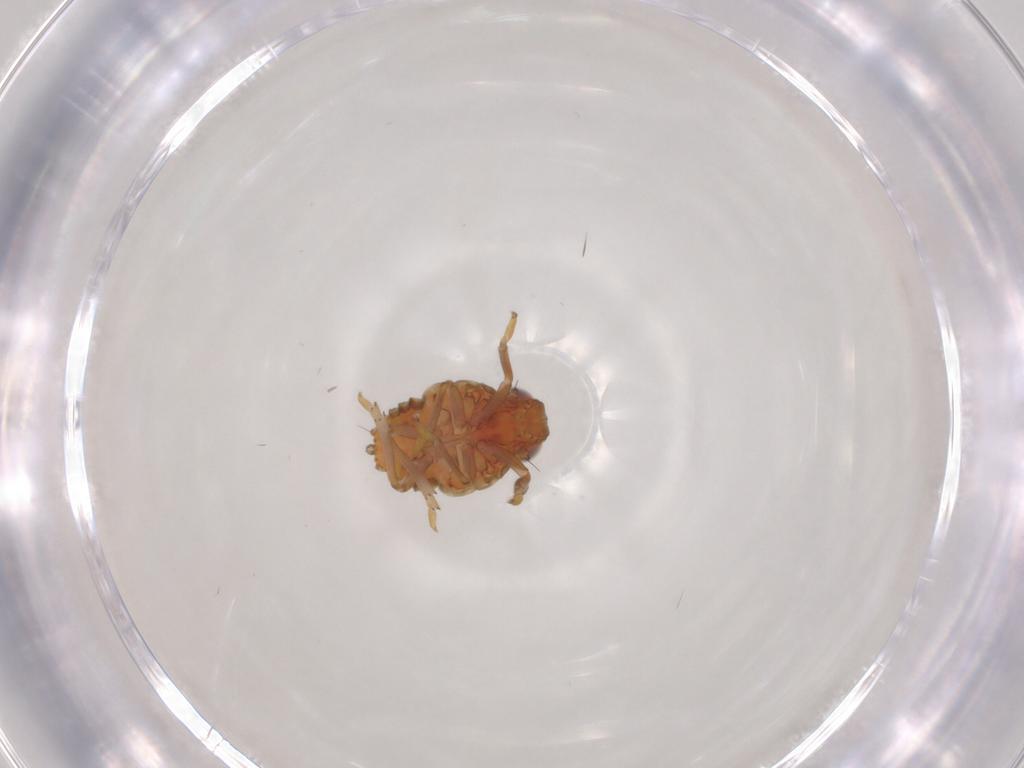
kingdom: Animalia
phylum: Arthropoda
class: Insecta
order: Hemiptera
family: Issidae
